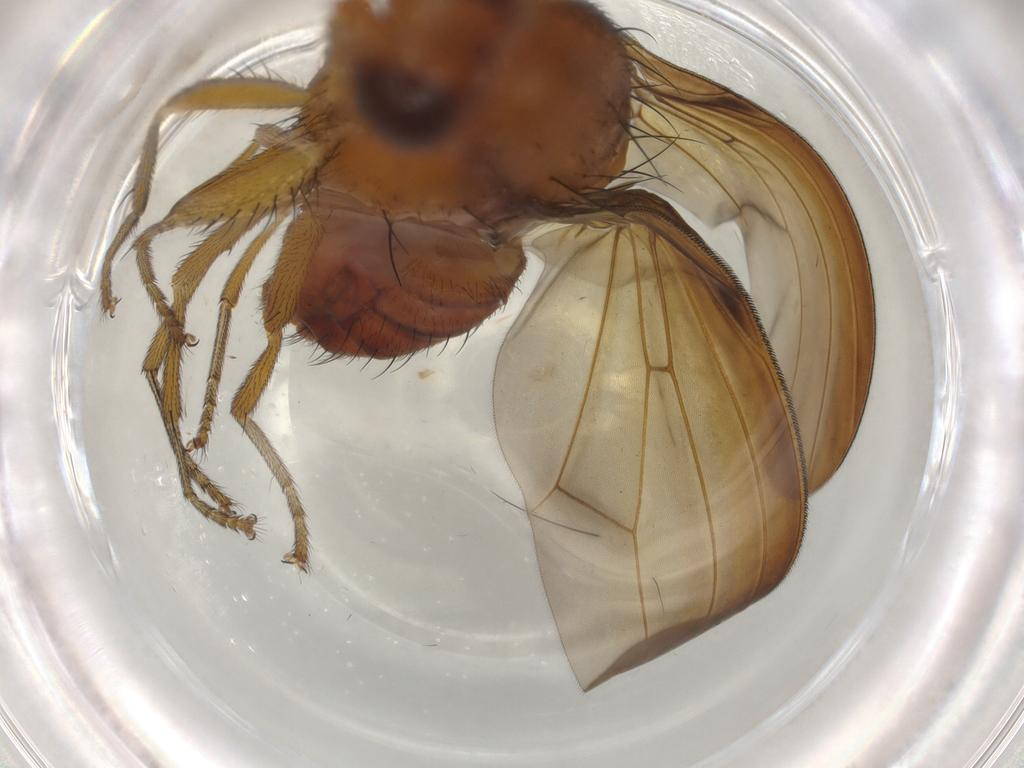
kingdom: Animalia
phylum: Arthropoda
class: Insecta
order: Diptera
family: Lauxaniidae
